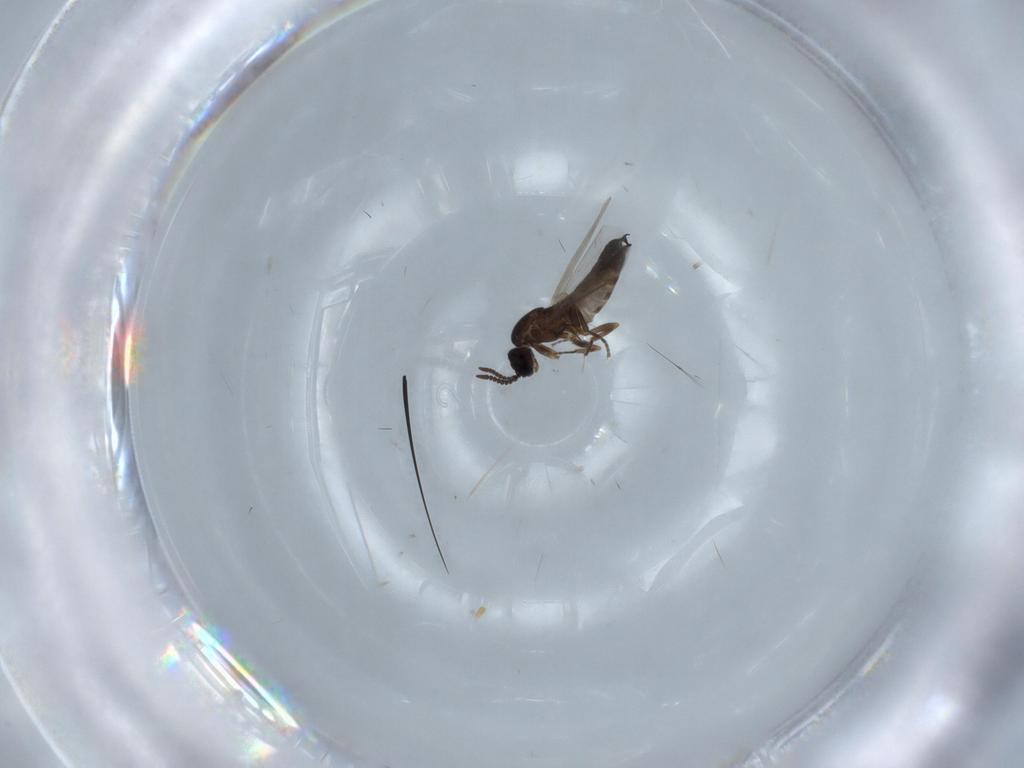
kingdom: Animalia
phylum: Arthropoda
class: Insecta
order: Diptera
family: Scatopsidae
